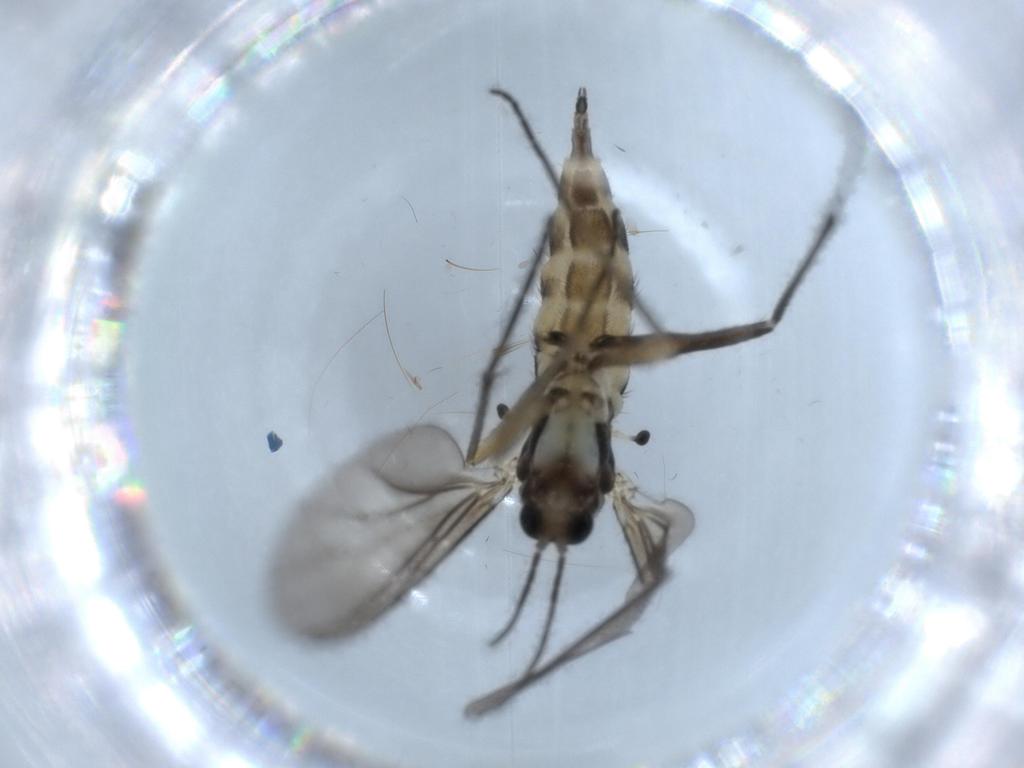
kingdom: Animalia
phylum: Arthropoda
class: Insecta
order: Diptera
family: Sciaridae
